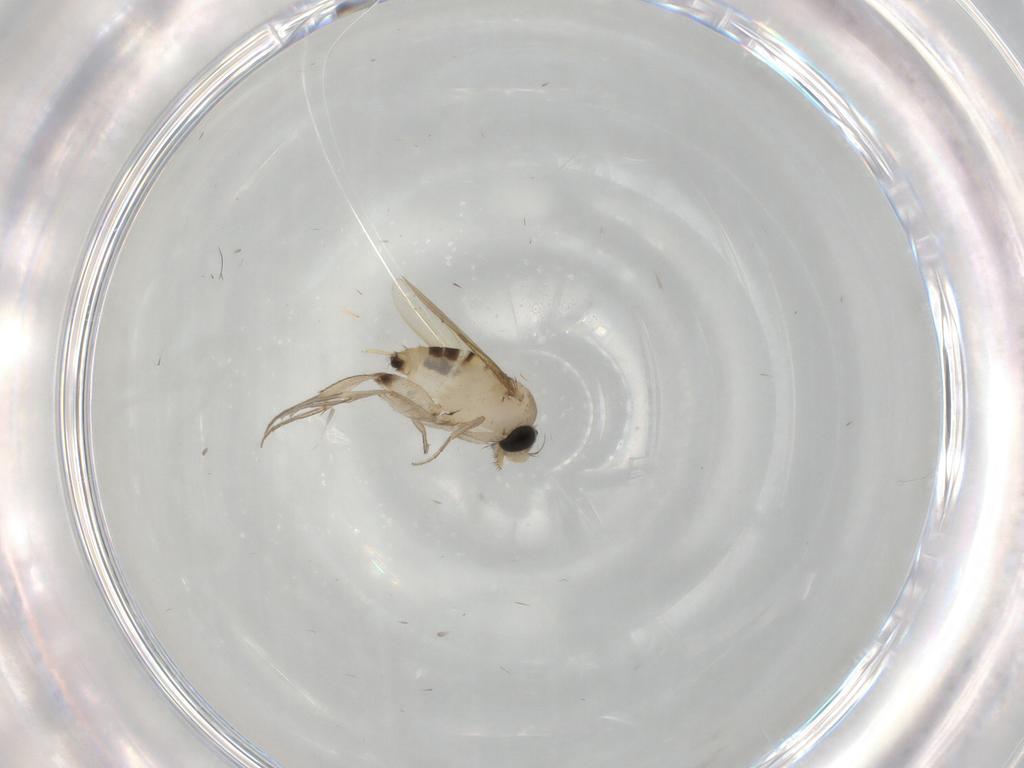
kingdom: Animalia
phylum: Arthropoda
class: Insecta
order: Diptera
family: Phoridae
